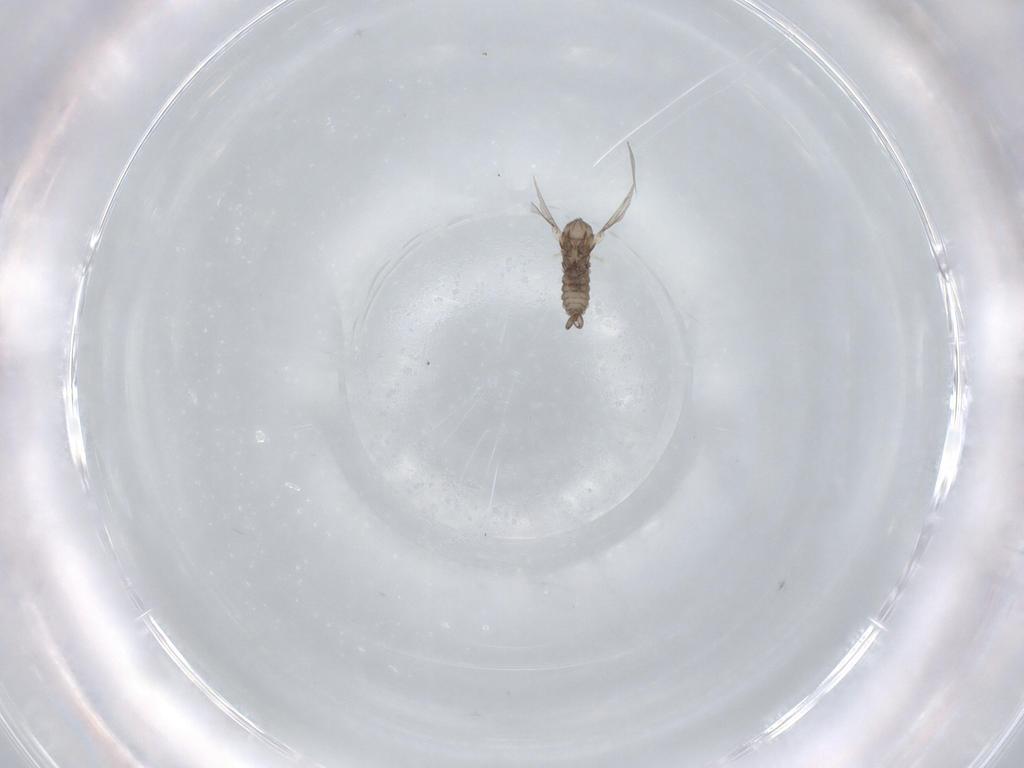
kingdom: Animalia
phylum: Arthropoda
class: Insecta
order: Diptera
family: Cecidomyiidae
